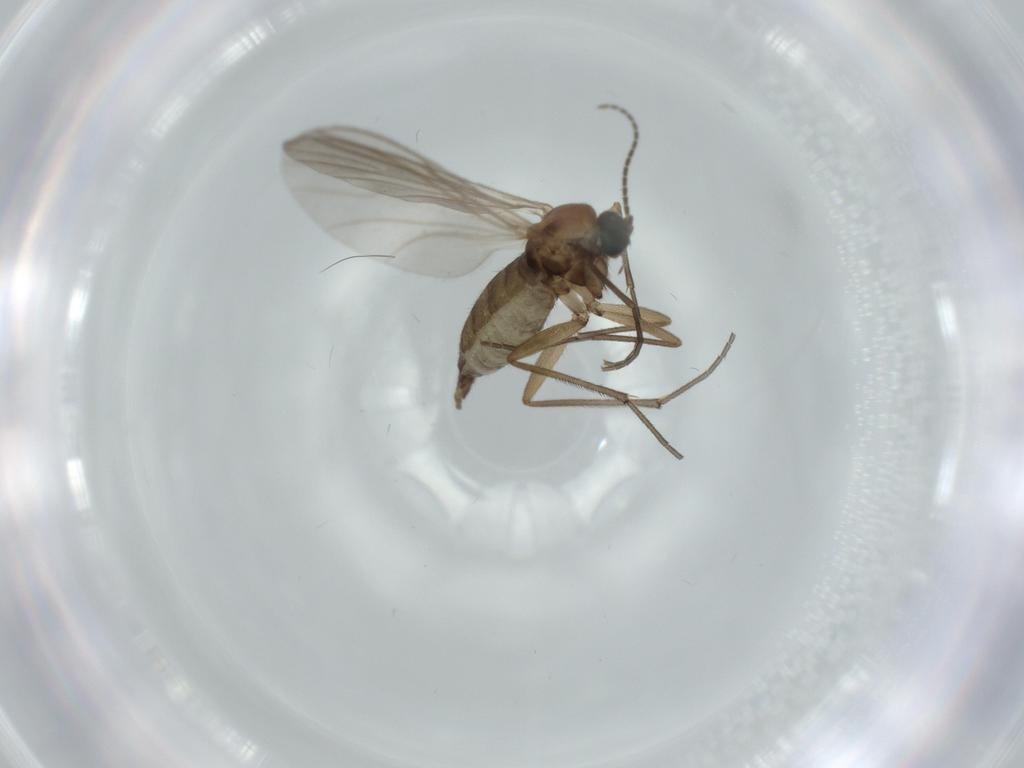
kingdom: Animalia
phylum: Arthropoda
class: Insecta
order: Diptera
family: Sciaridae
